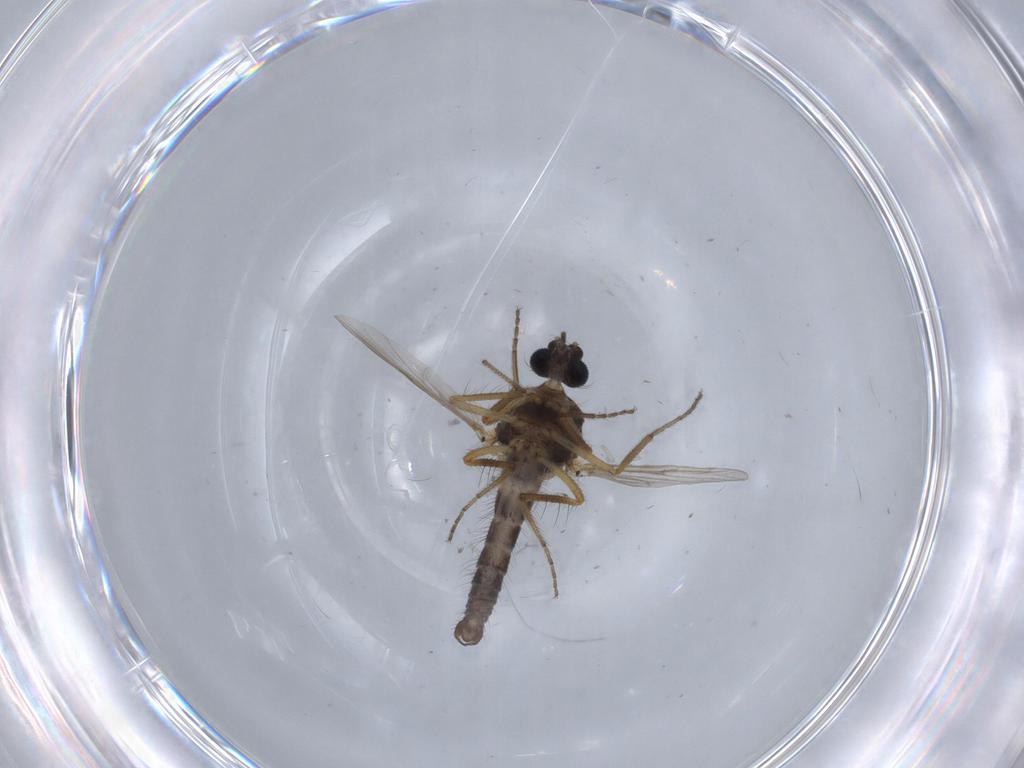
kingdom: Animalia
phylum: Arthropoda
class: Insecta
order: Diptera
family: Ceratopogonidae
